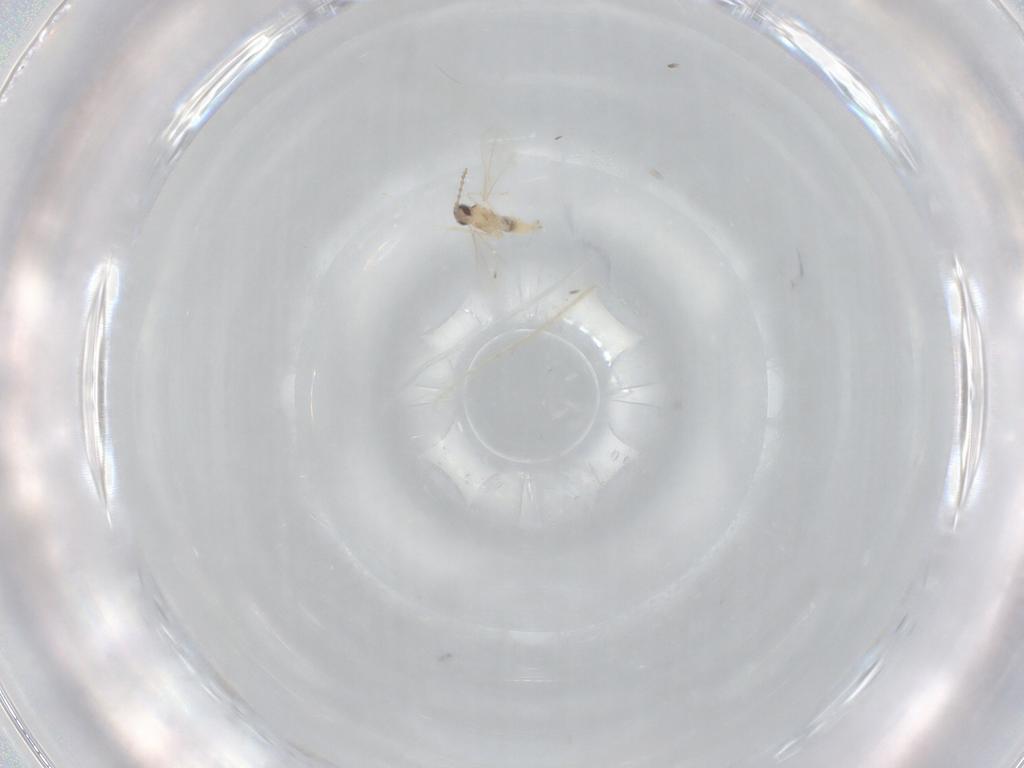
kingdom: Animalia
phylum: Arthropoda
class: Insecta
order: Diptera
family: Cecidomyiidae
